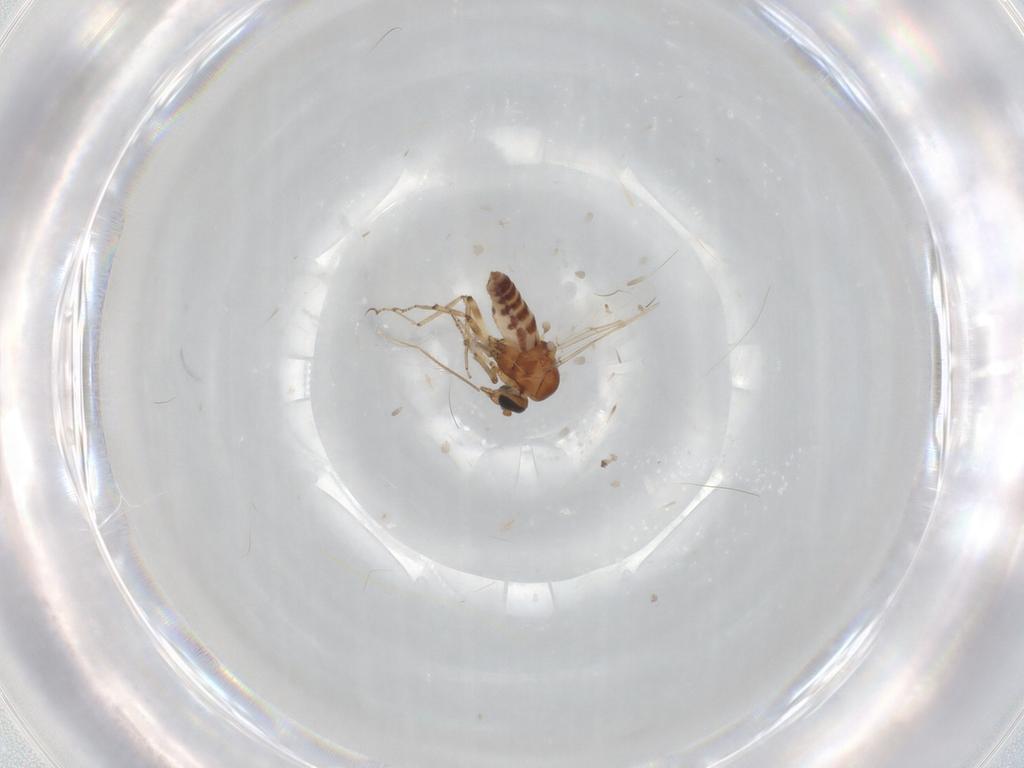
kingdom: Animalia
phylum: Arthropoda
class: Insecta
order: Diptera
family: Ceratopogonidae
